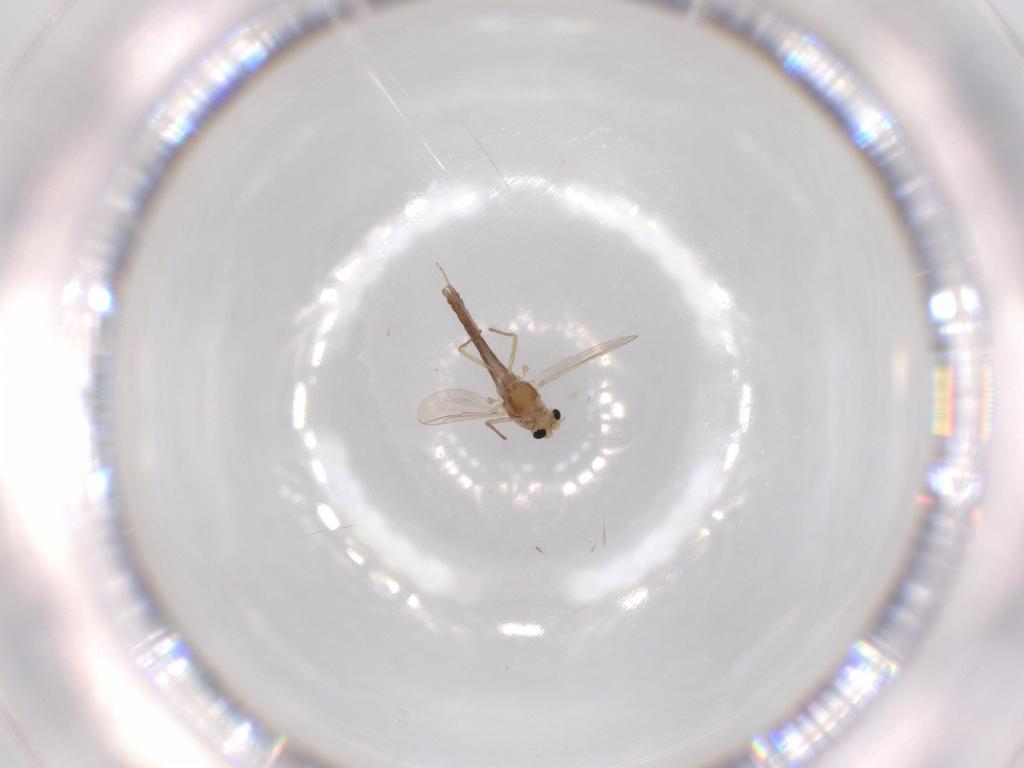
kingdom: Animalia
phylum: Arthropoda
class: Insecta
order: Diptera
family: Chironomidae
